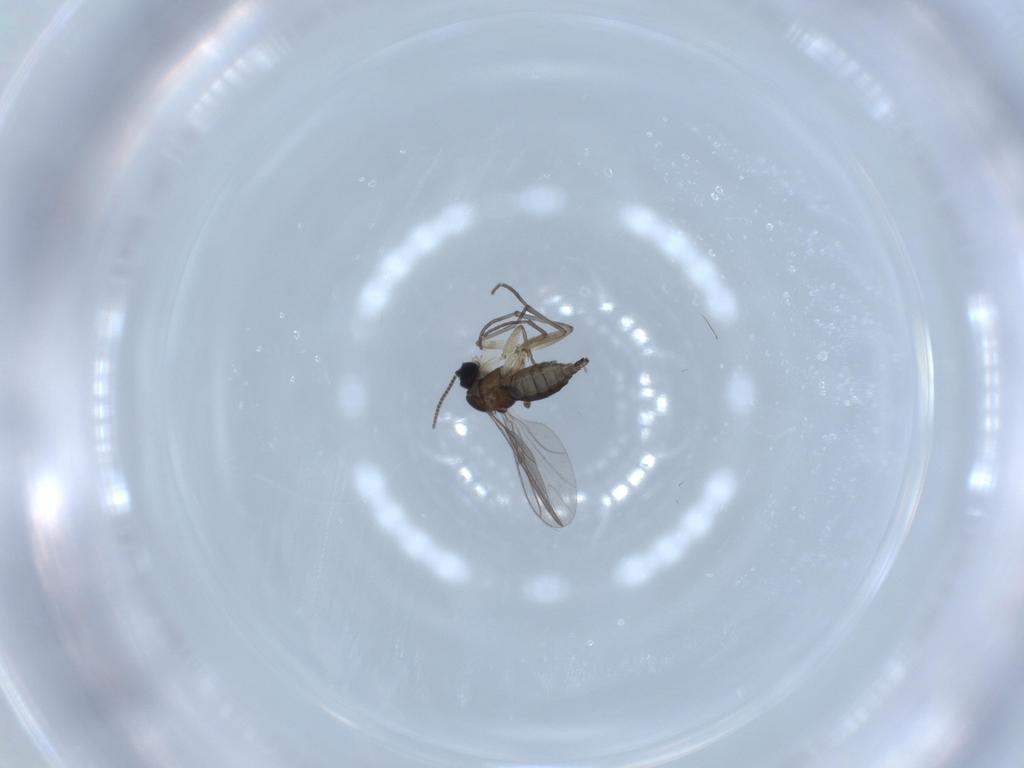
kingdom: Animalia
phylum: Arthropoda
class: Insecta
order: Diptera
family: Sciaridae
